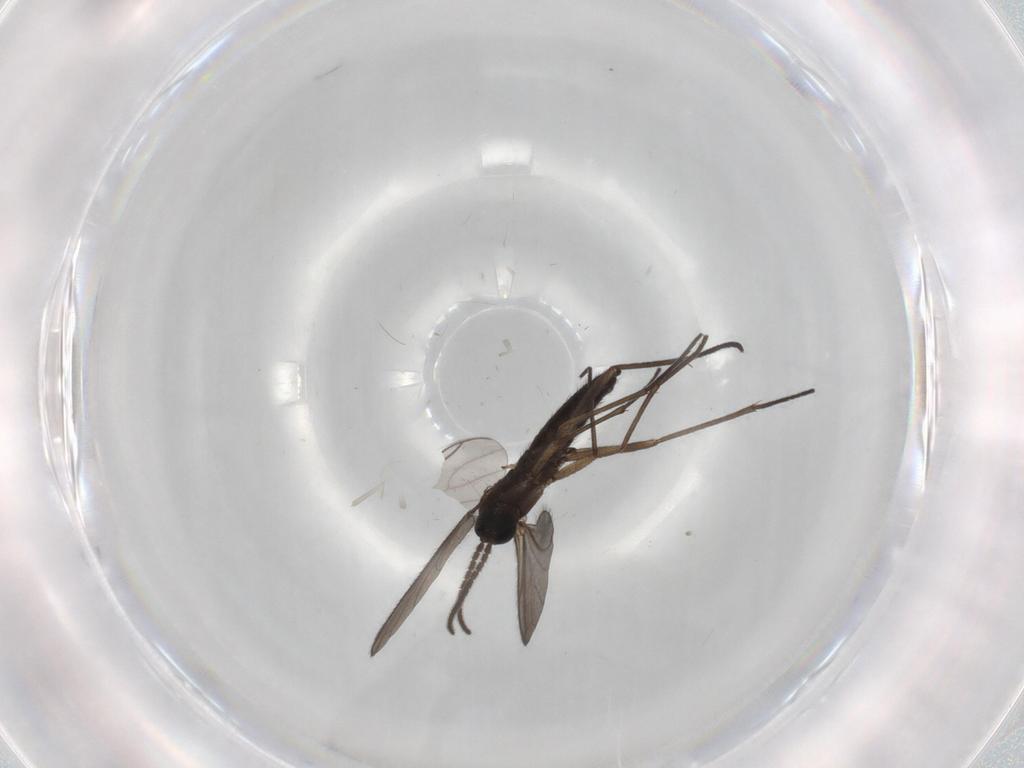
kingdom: Animalia
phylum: Arthropoda
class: Insecta
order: Diptera
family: Sciaridae
